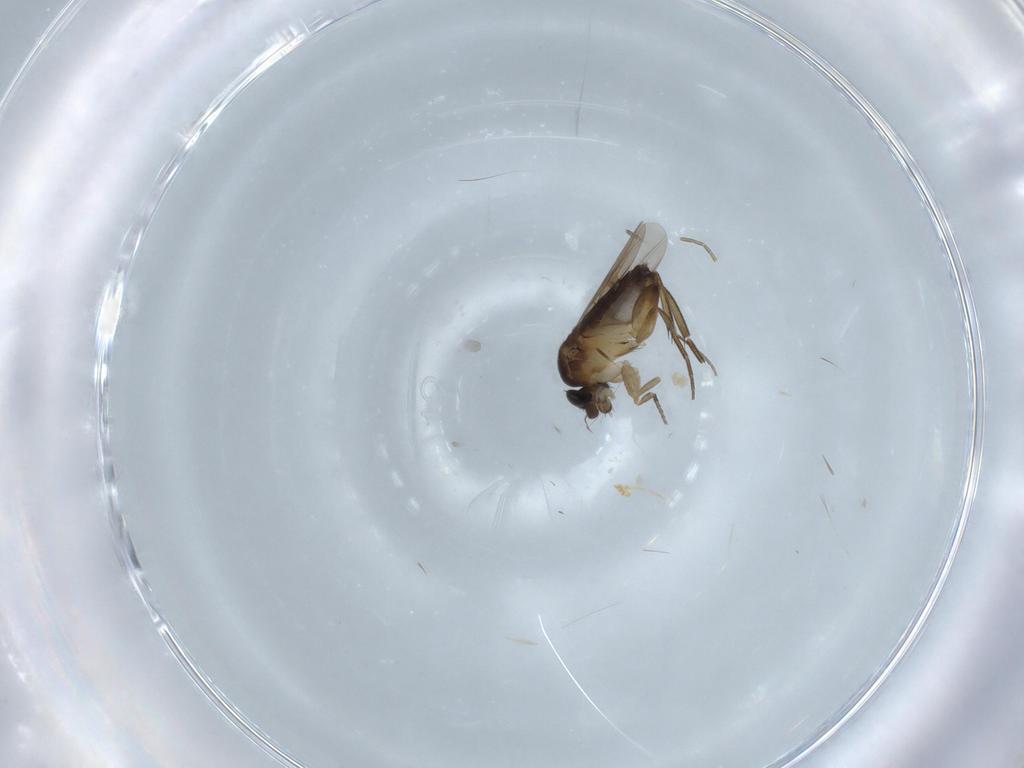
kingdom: Animalia
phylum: Arthropoda
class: Insecta
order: Diptera
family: Phoridae
